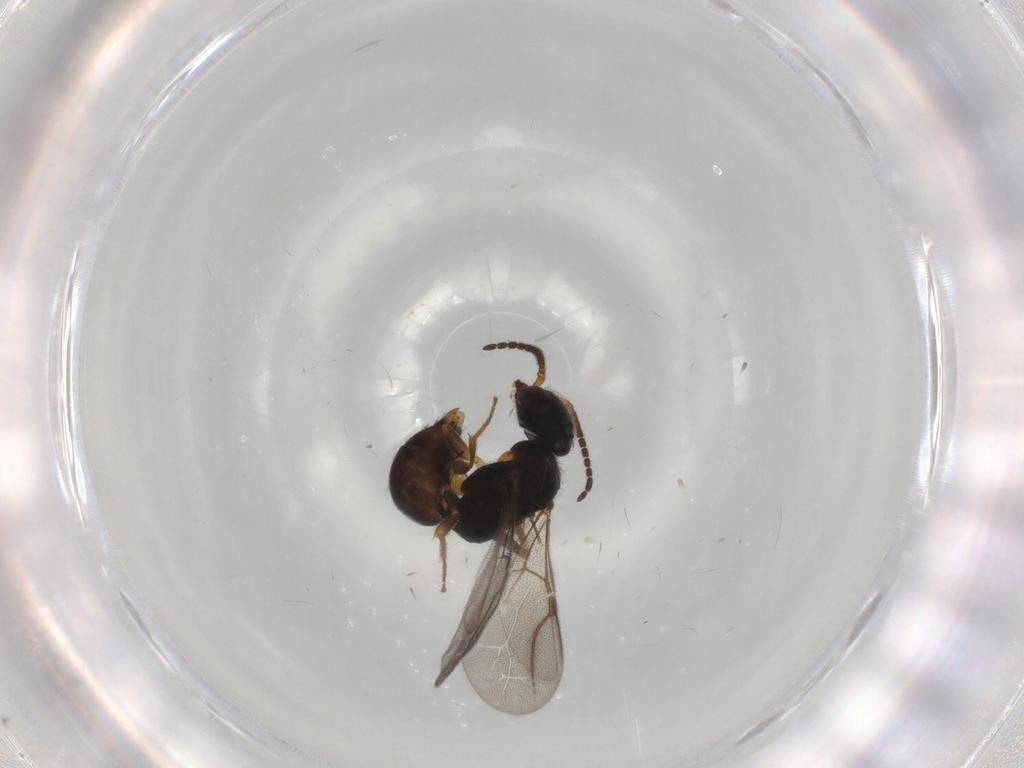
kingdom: Animalia
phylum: Arthropoda
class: Insecta
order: Hymenoptera
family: Bethylidae
